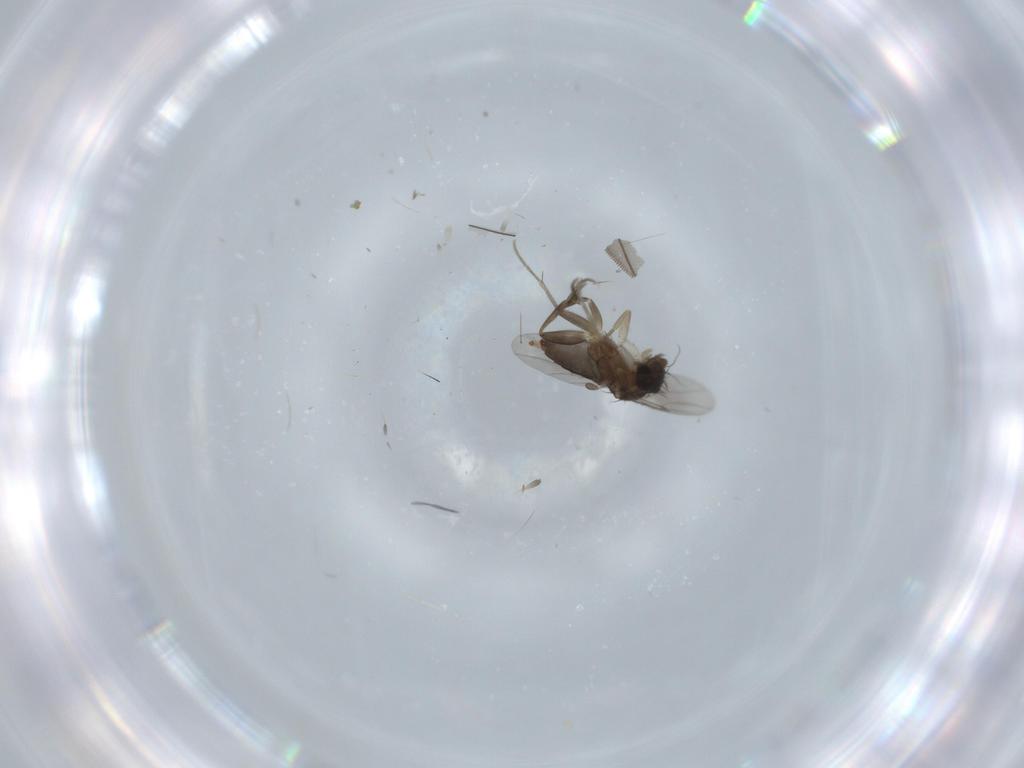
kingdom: Animalia
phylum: Arthropoda
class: Insecta
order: Diptera
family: Phoridae
